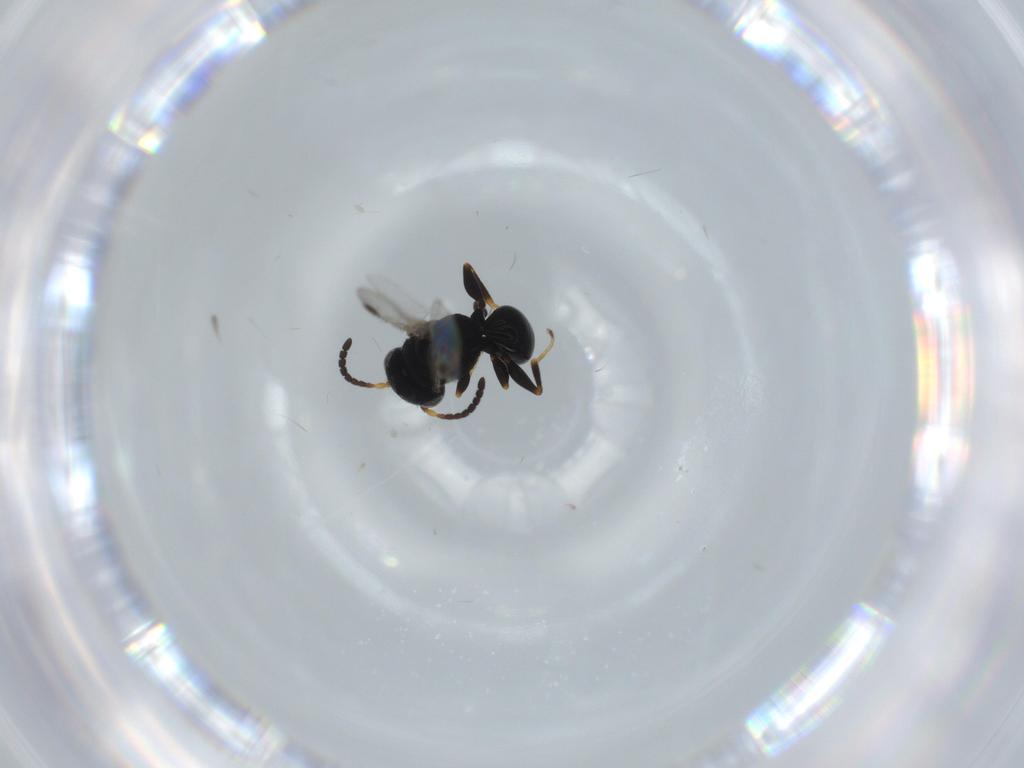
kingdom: Animalia
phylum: Arthropoda
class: Insecta
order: Hymenoptera
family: Dryinidae
